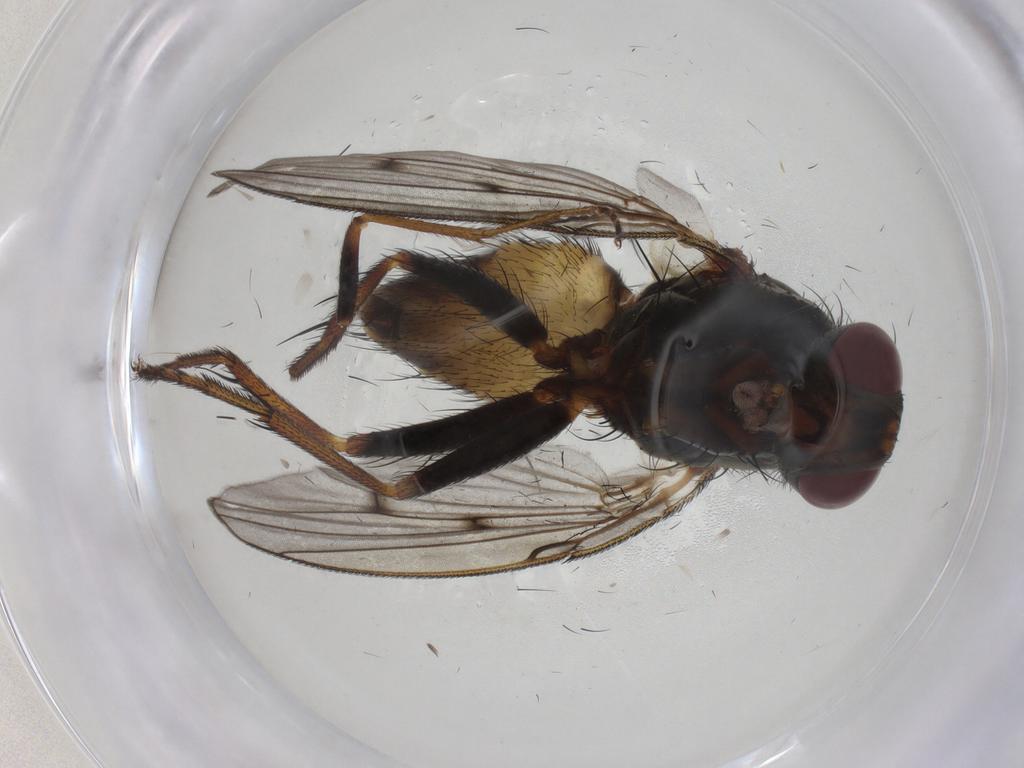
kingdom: Animalia
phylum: Arthropoda
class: Insecta
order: Diptera
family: Muscidae
